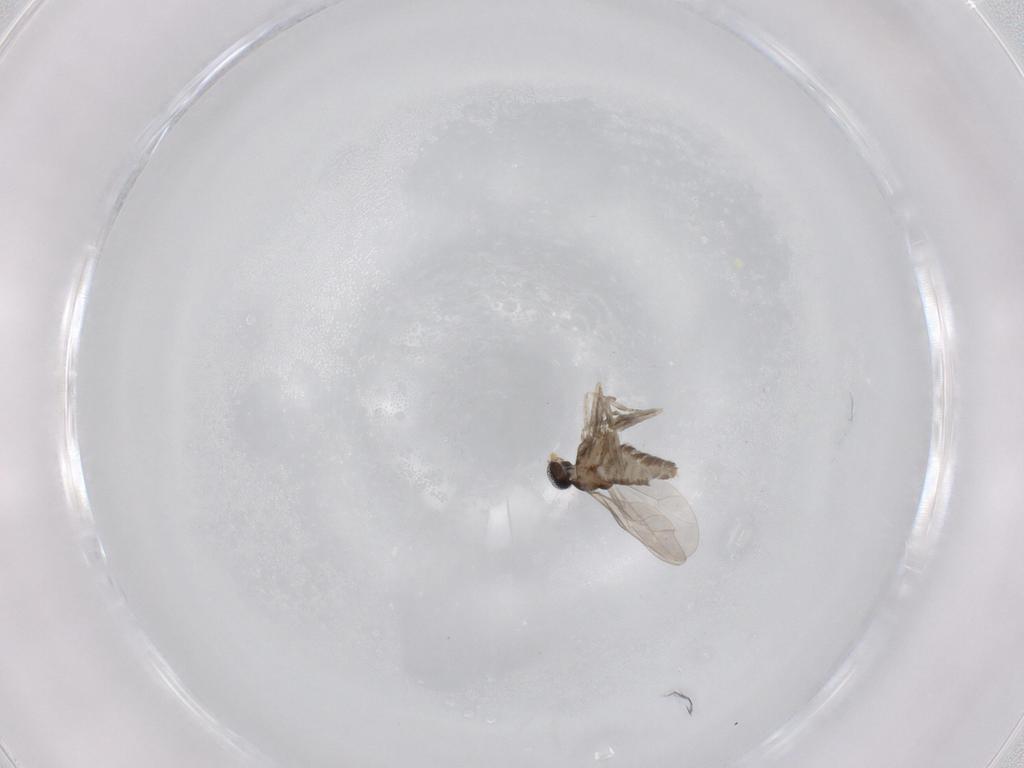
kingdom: Animalia
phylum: Arthropoda
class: Insecta
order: Diptera
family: Cecidomyiidae
